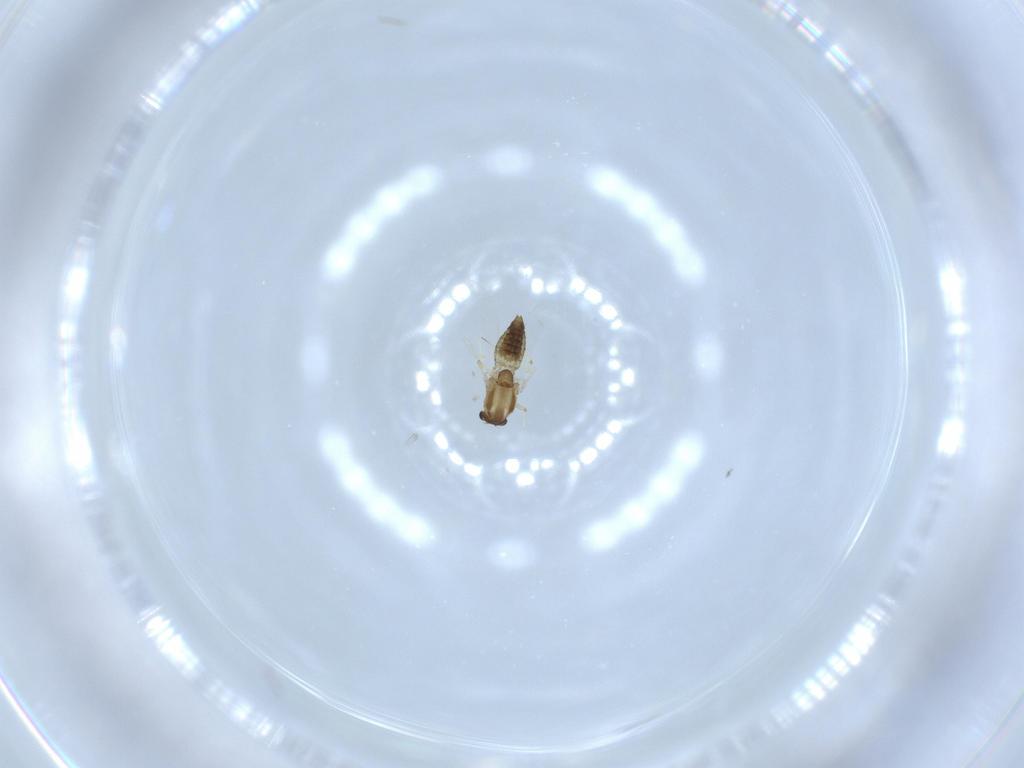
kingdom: Animalia
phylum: Arthropoda
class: Insecta
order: Diptera
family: Chironomidae
